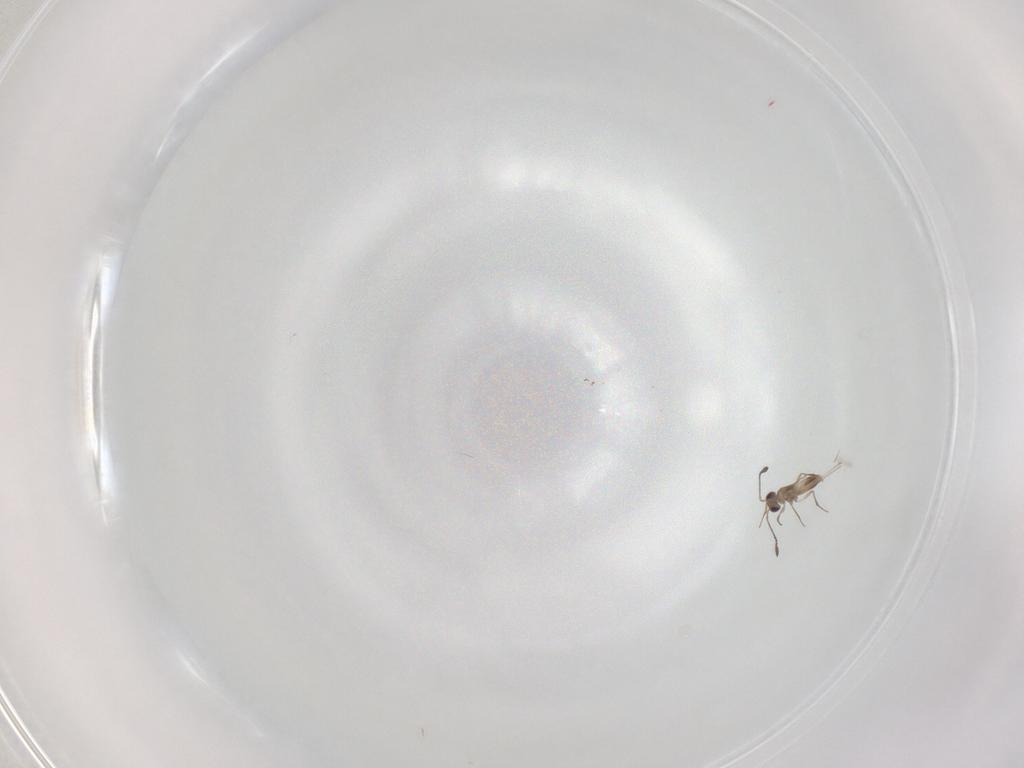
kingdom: Animalia
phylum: Arthropoda
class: Insecta
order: Hymenoptera
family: Mymaridae
